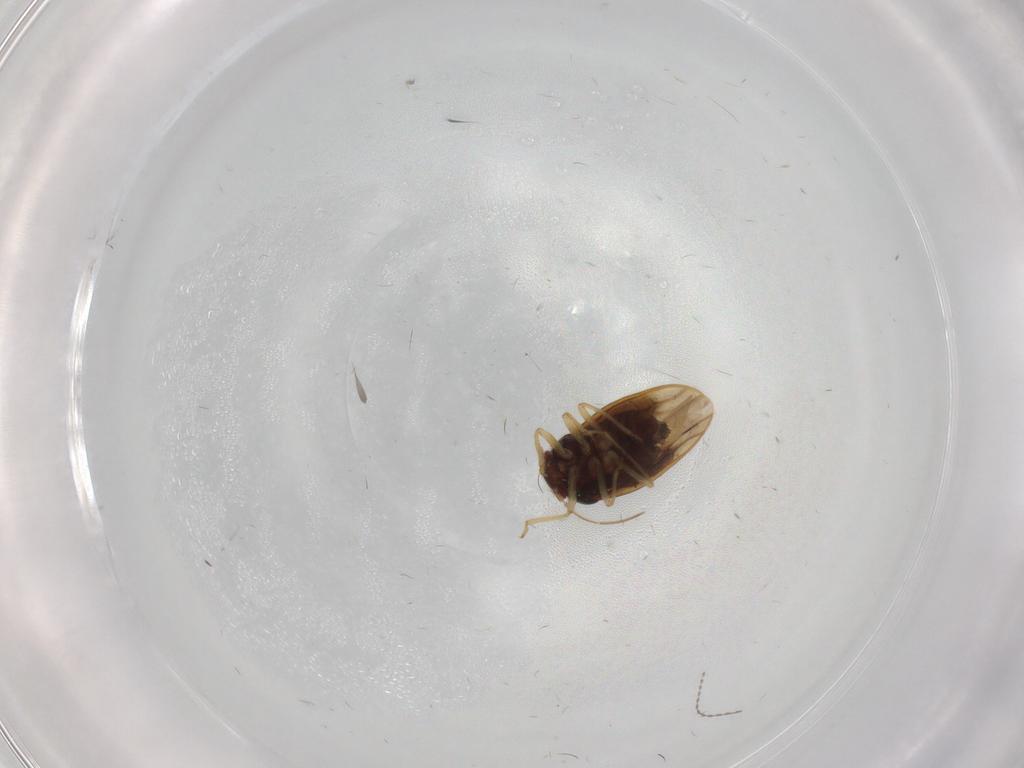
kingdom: Animalia
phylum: Arthropoda
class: Insecta
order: Hemiptera
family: Schizopteridae
